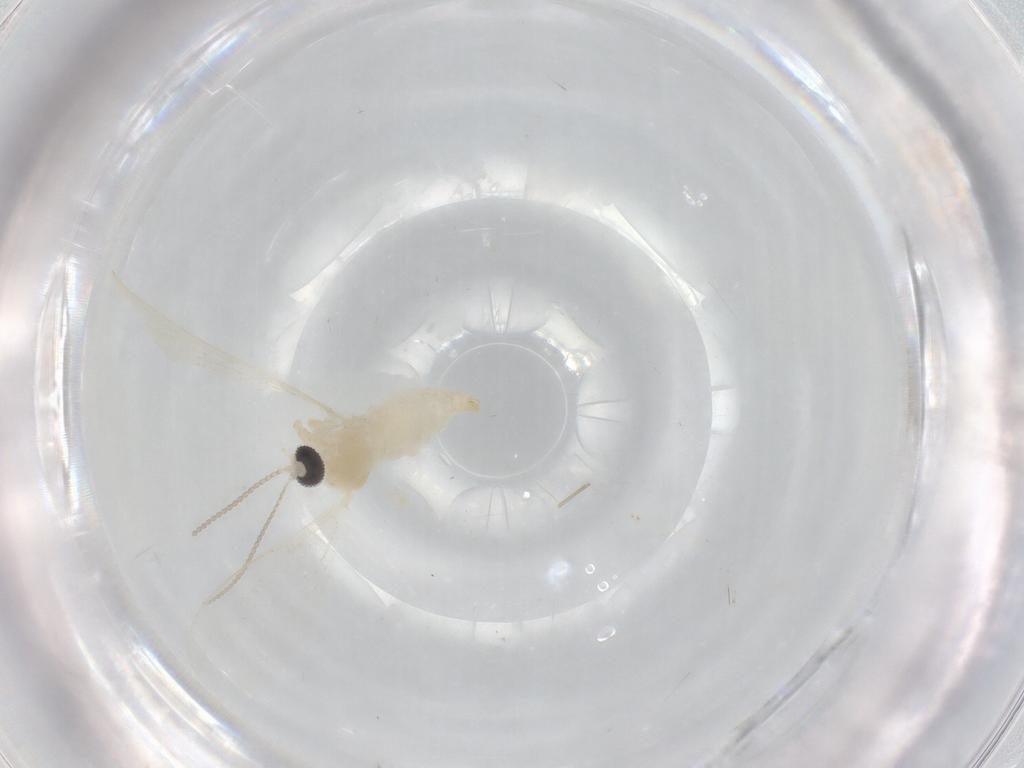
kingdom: Animalia
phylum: Arthropoda
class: Insecta
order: Diptera
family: Cecidomyiidae
